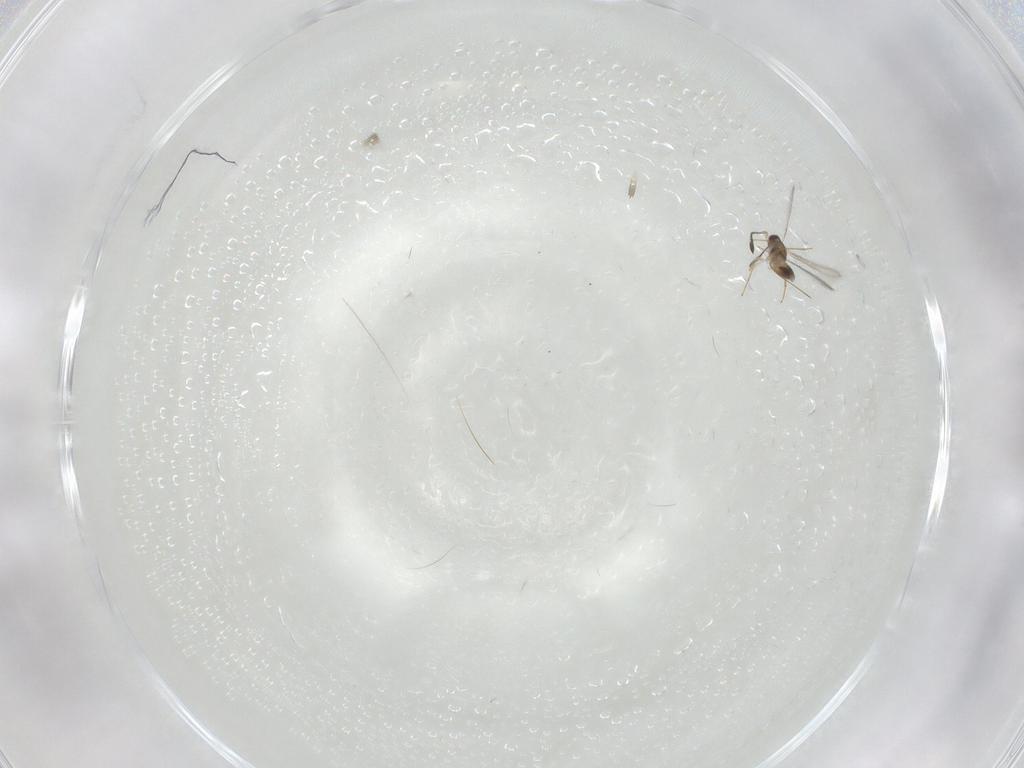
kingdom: Animalia
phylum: Arthropoda
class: Insecta
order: Hymenoptera
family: Mymaridae
